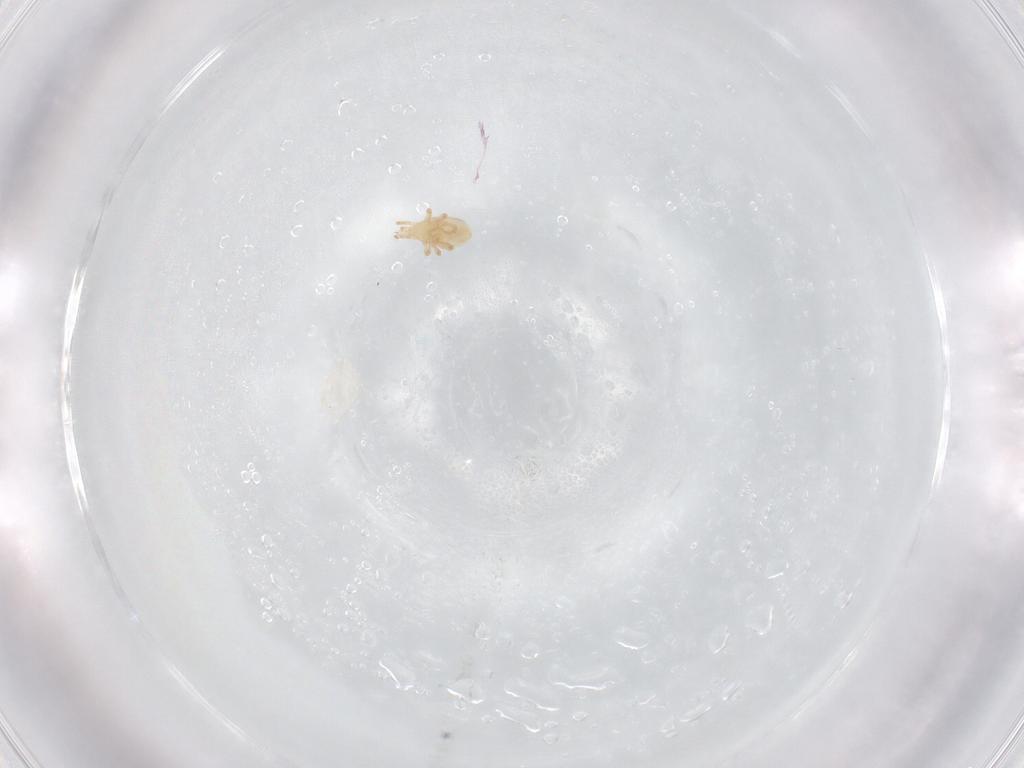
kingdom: Animalia
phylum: Arthropoda
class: Arachnida
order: Mesostigmata
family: Phytoseiidae
